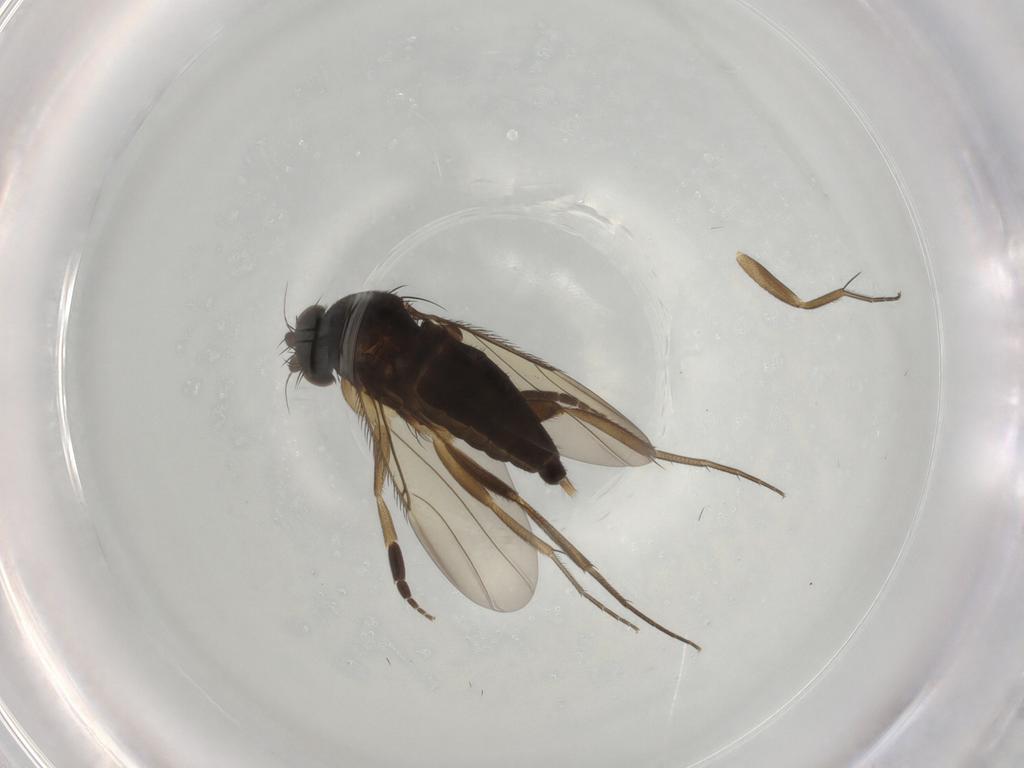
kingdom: Animalia
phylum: Arthropoda
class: Insecta
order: Diptera
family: Phoridae
